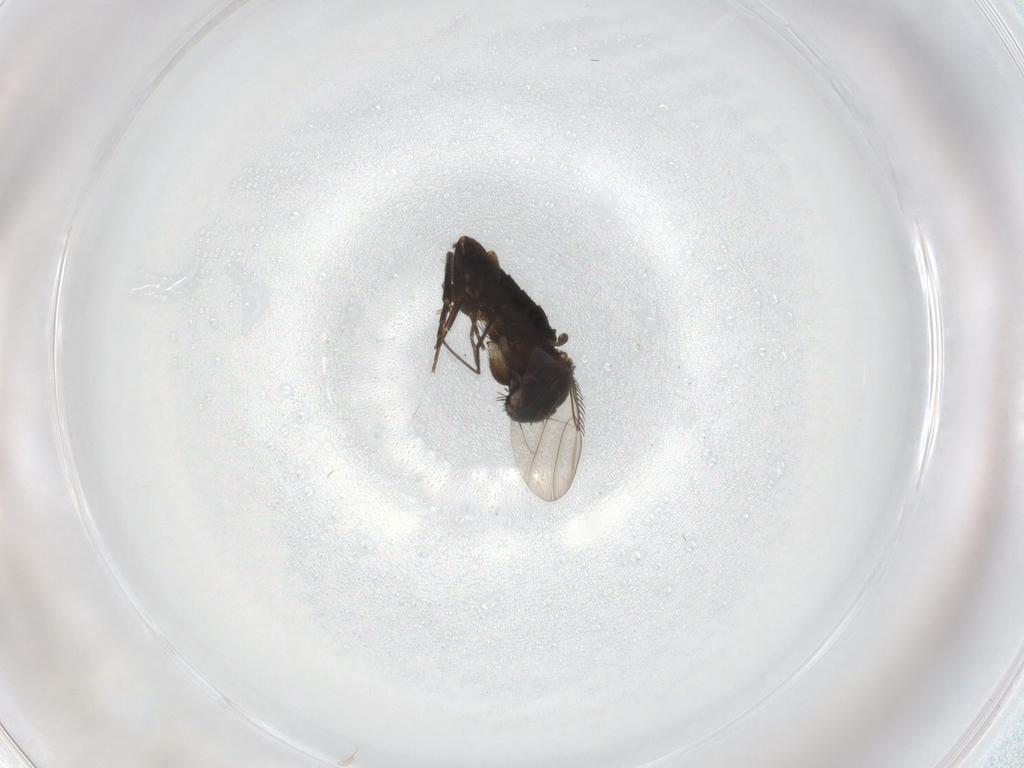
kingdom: Animalia
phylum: Arthropoda
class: Insecta
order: Diptera
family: Phoridae
